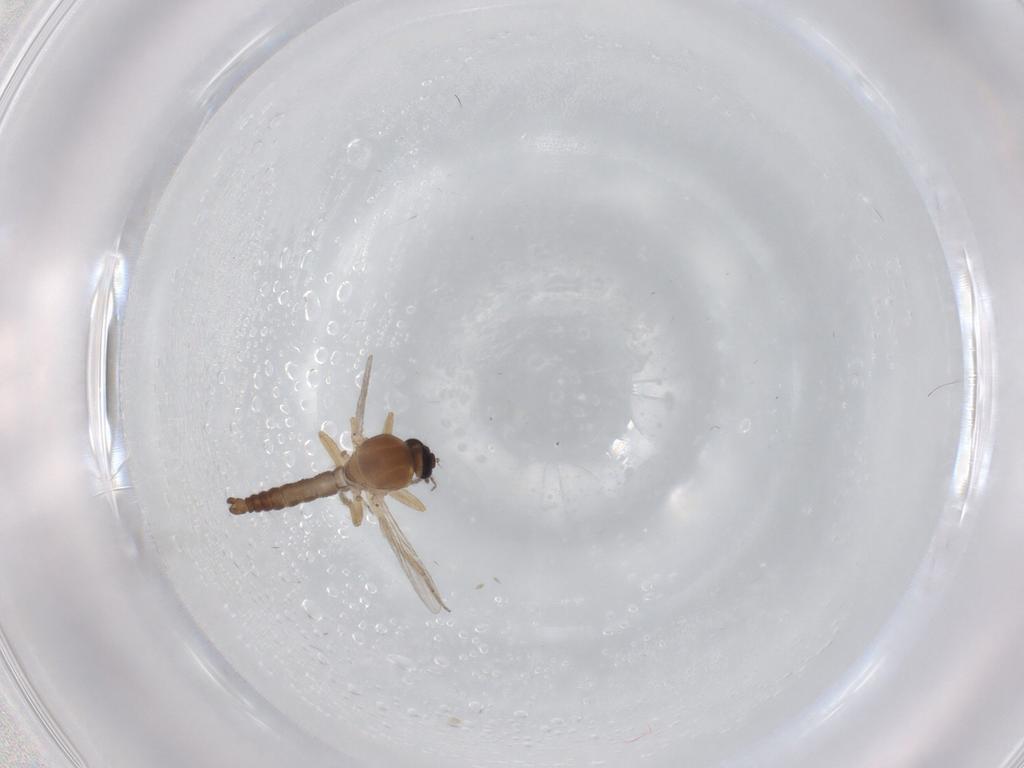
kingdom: Animalia
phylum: Arthropoda
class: Insecta
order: Diptera
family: Ceratopogonidae
